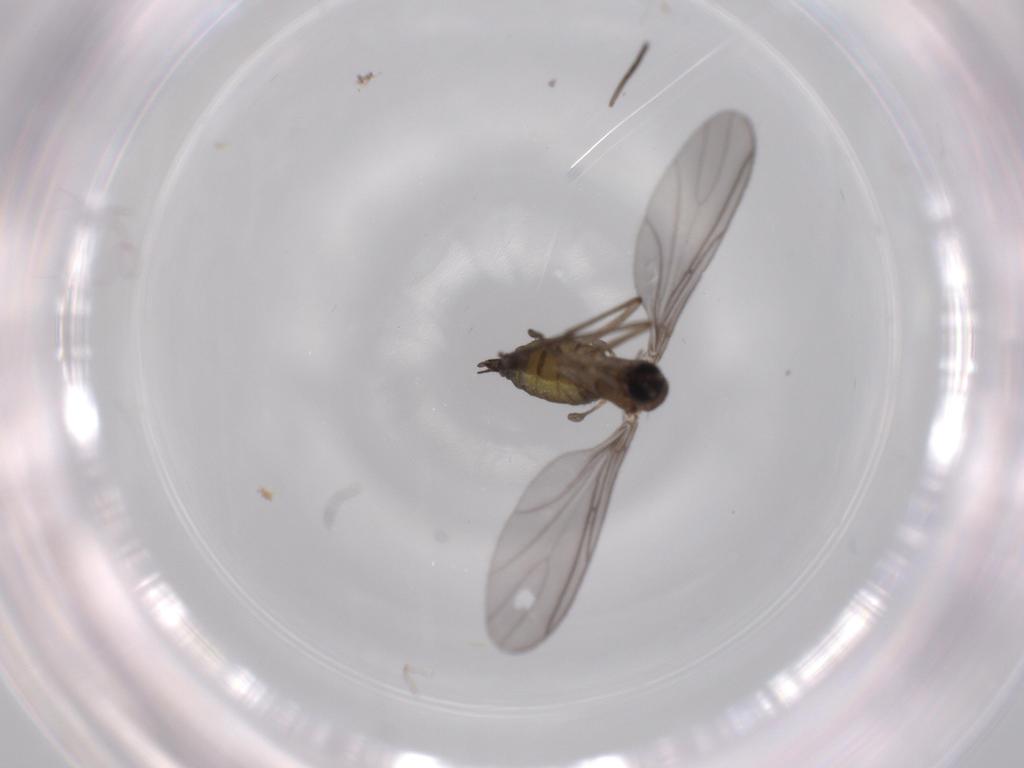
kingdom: Animalia
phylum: Arthropoda
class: Insecta
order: Diptera
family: Sciaridae
